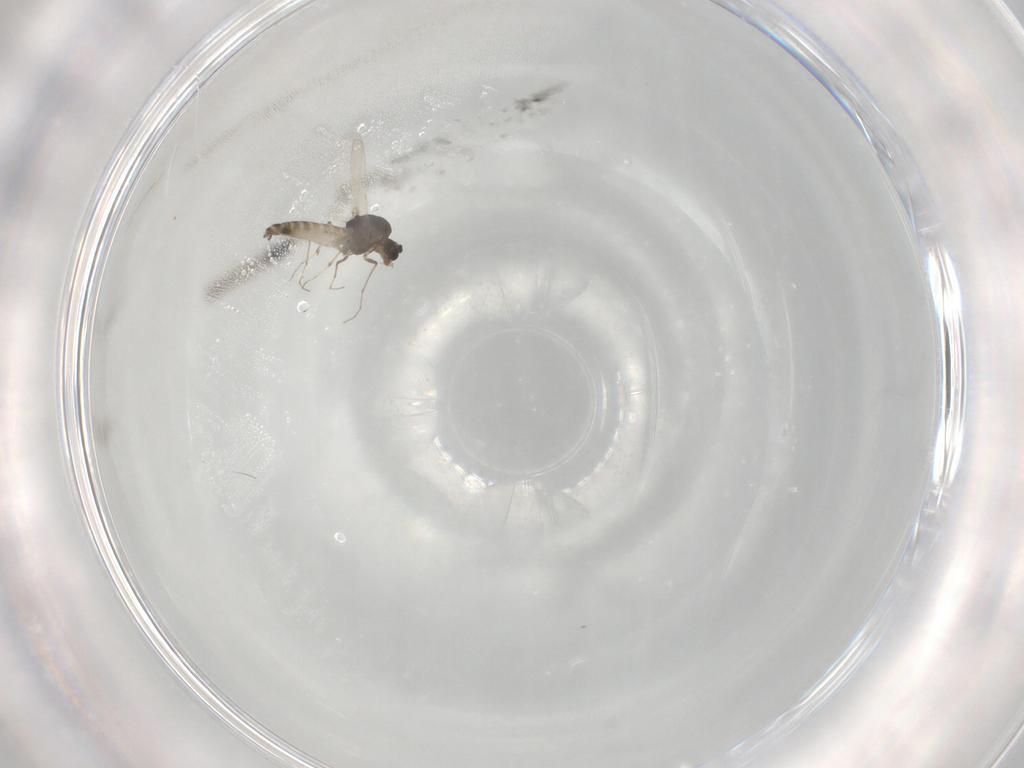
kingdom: Animalia
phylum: Arthropoda
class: Insecta
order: Diptera
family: Chironomidae
